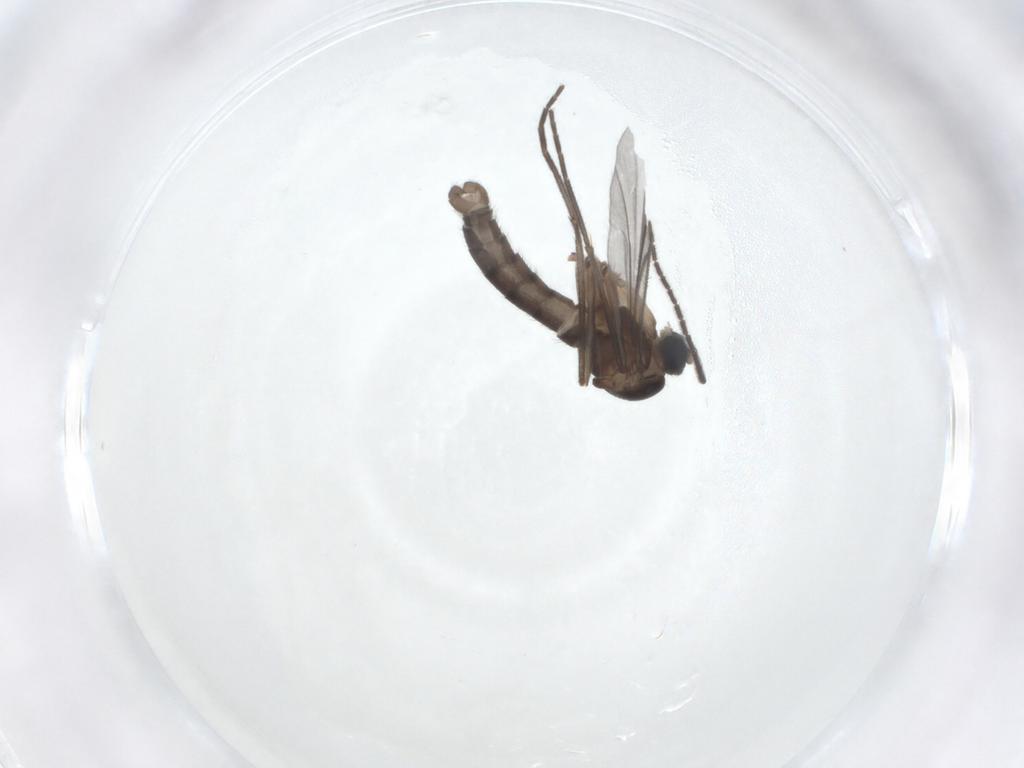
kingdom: Animalia
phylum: Arthropoda
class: Insecta
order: Diptera
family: Sciaridae
